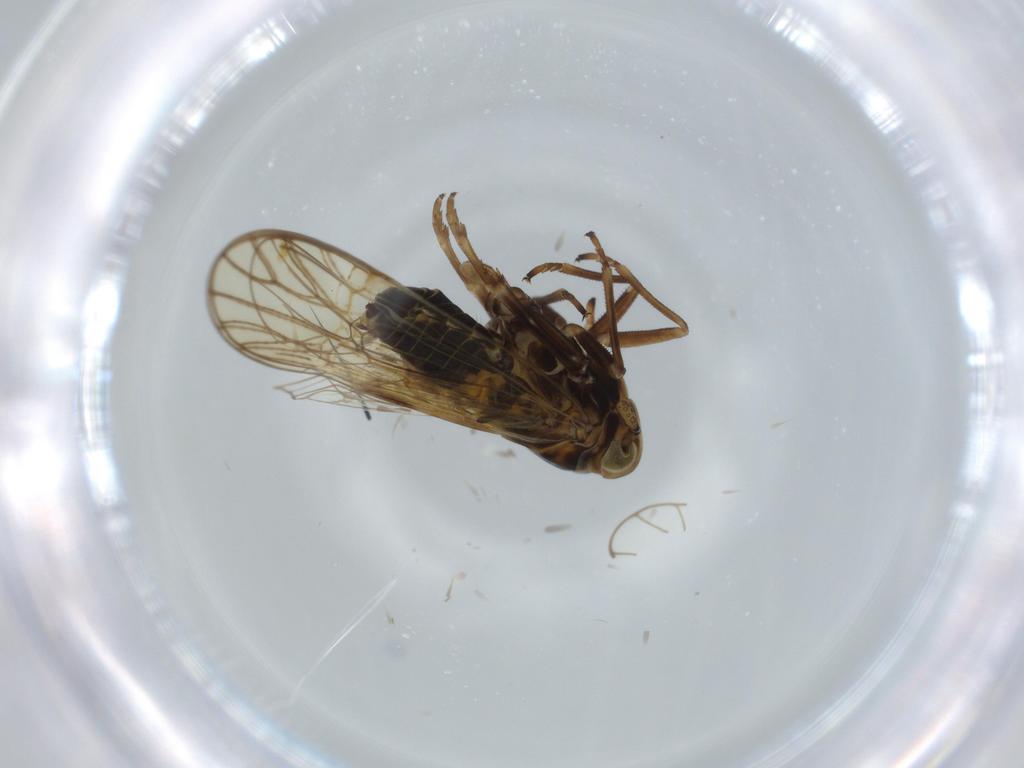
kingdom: Animalia
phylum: Arthropoda
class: Insecta
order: Hemiptera
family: Delphacidae
